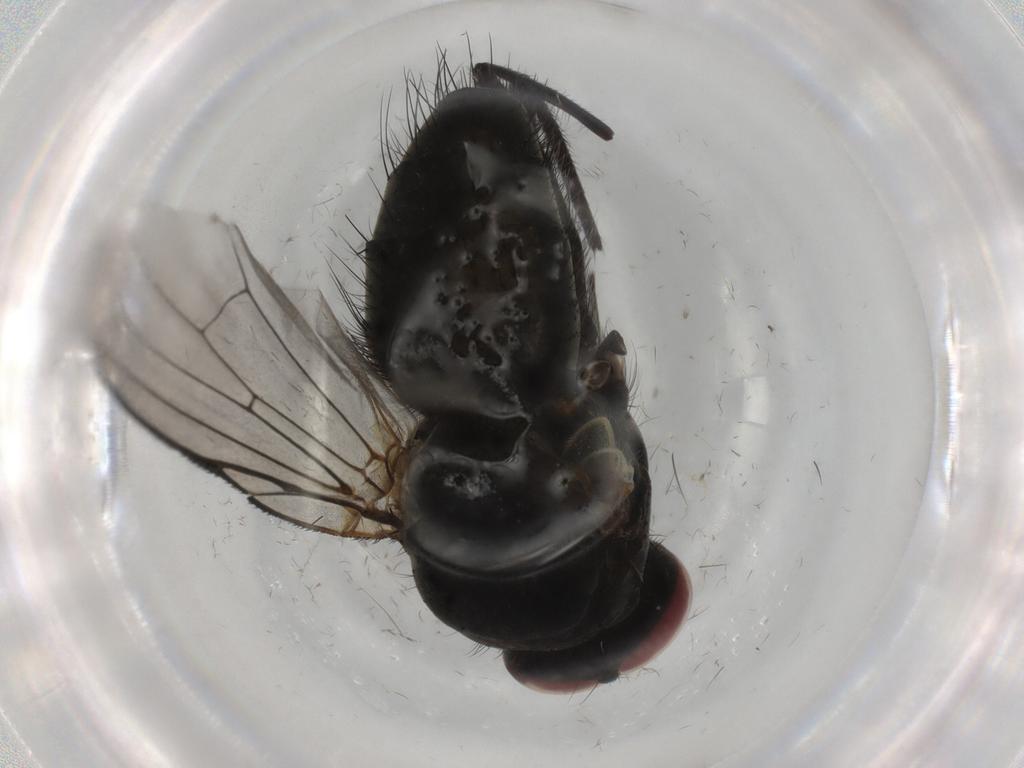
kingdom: Animalia
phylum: Arthropoda
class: Insecta
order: Diptera
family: Muscidae
